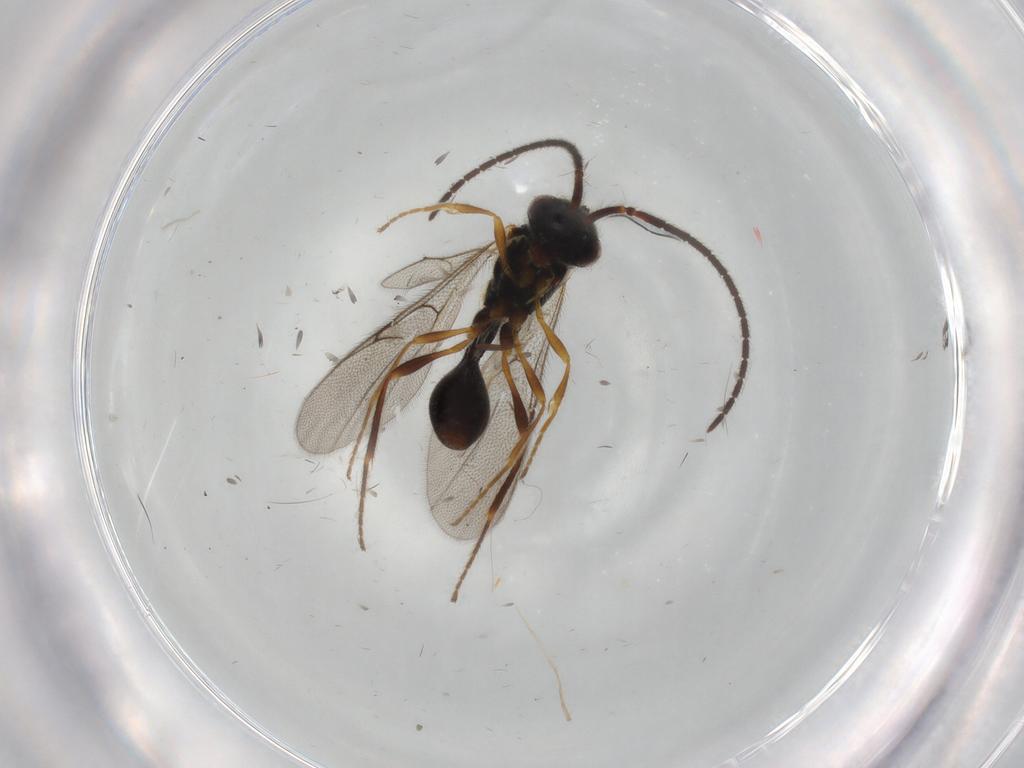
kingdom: Animalia
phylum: Arthropoda
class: Insecta
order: Hymenoptera
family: Diapriidae
